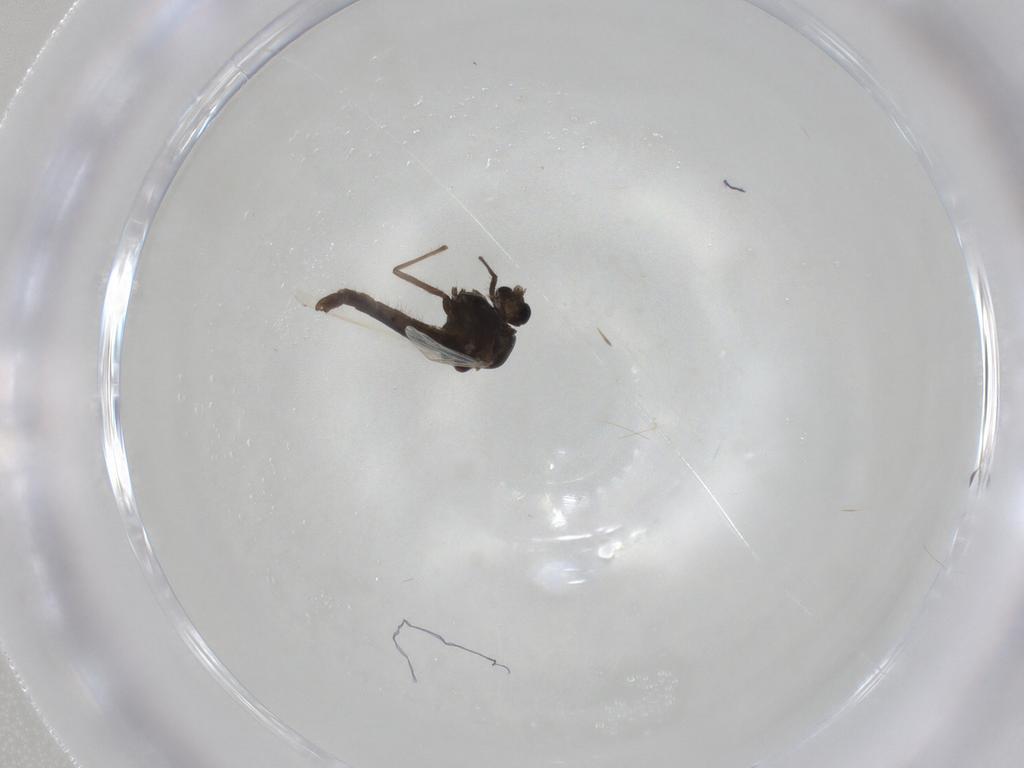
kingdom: Animalia
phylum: Arthropoda
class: Insecta
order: Diptera
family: Chironomidae
